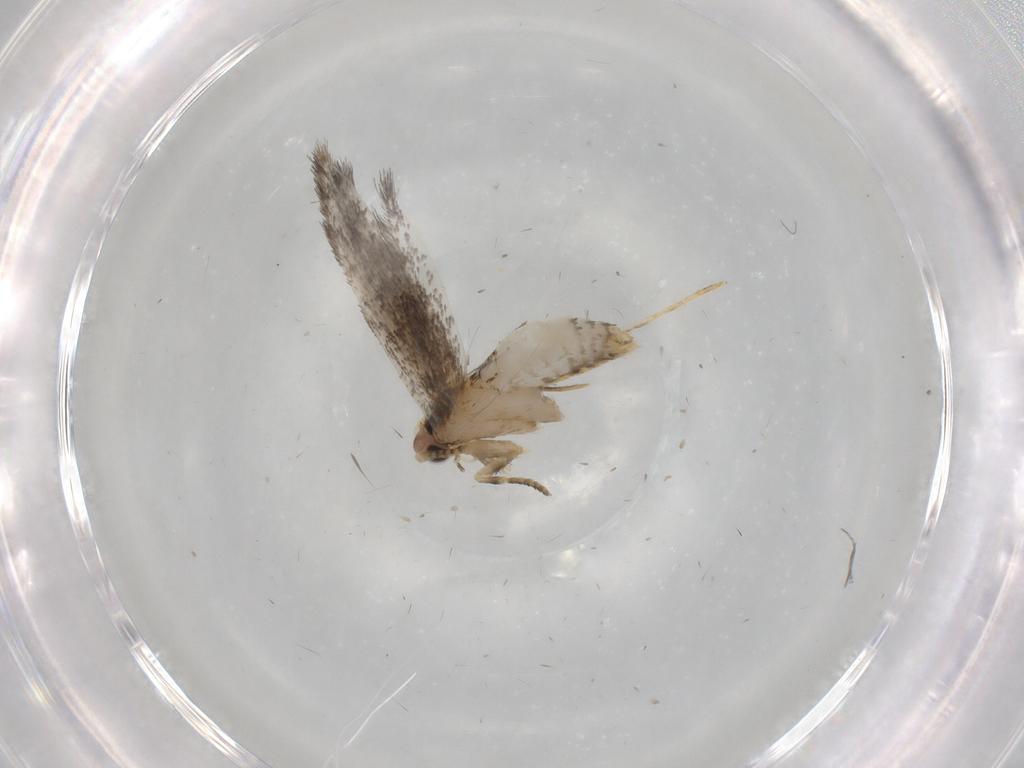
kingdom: Animalia
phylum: Arthropoda
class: Insecta
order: Lepidoptera
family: Tineidae
